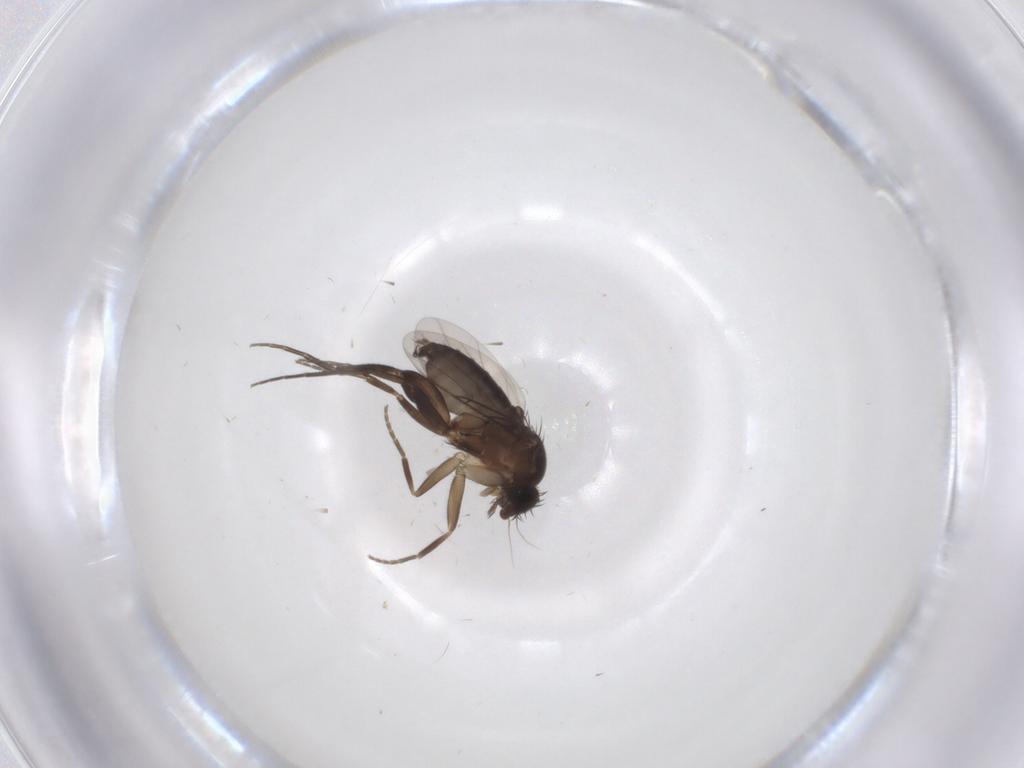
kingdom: Animalia
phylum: Arthropoda
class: Insecta
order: Diptera
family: Phoridae
